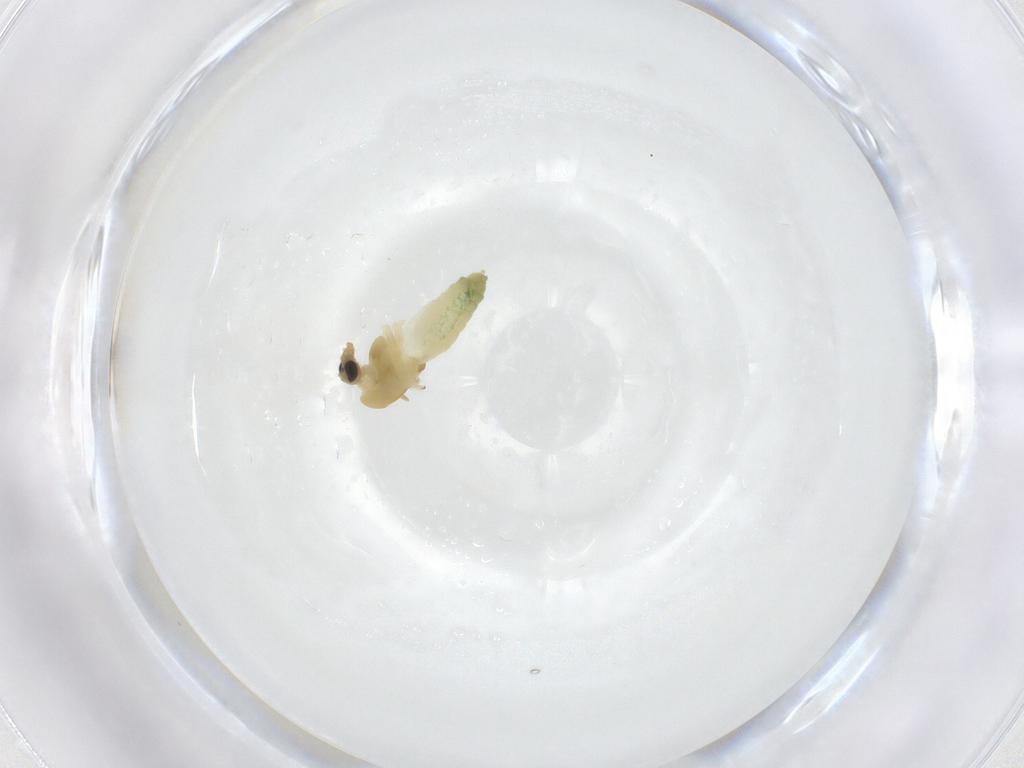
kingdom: Animalia
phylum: Arthropoda
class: Insecta
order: Diptera
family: Chironomidae
